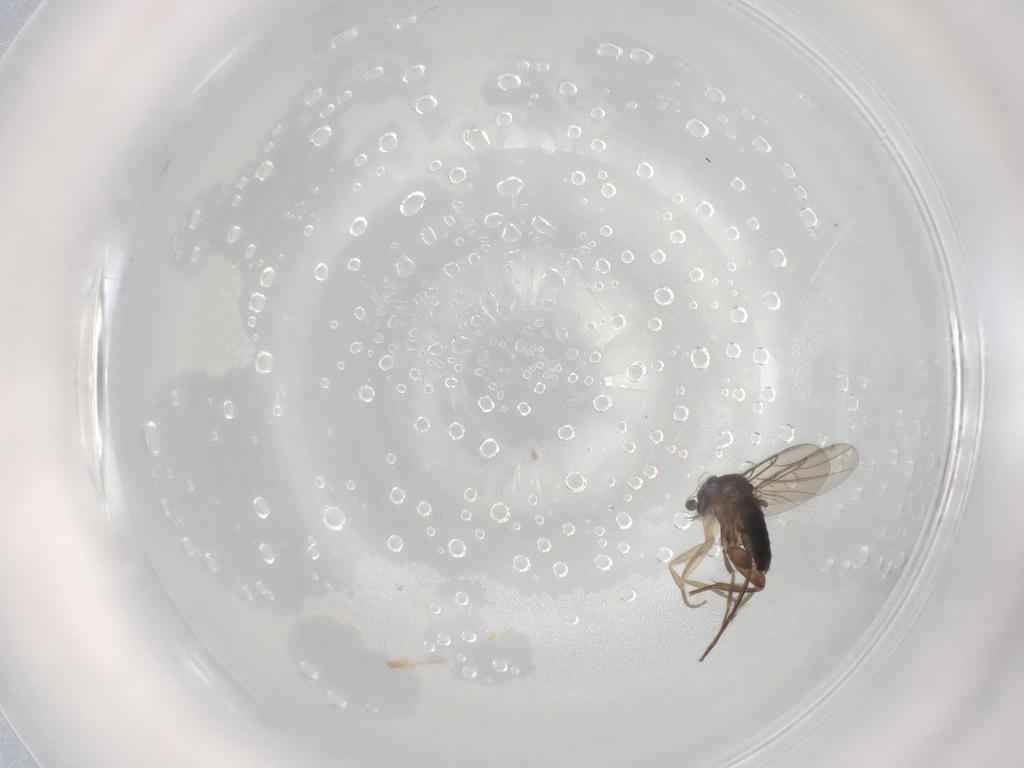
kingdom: Animalia
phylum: Arthropoda
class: Insecta
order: Diptera
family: Phoridae
